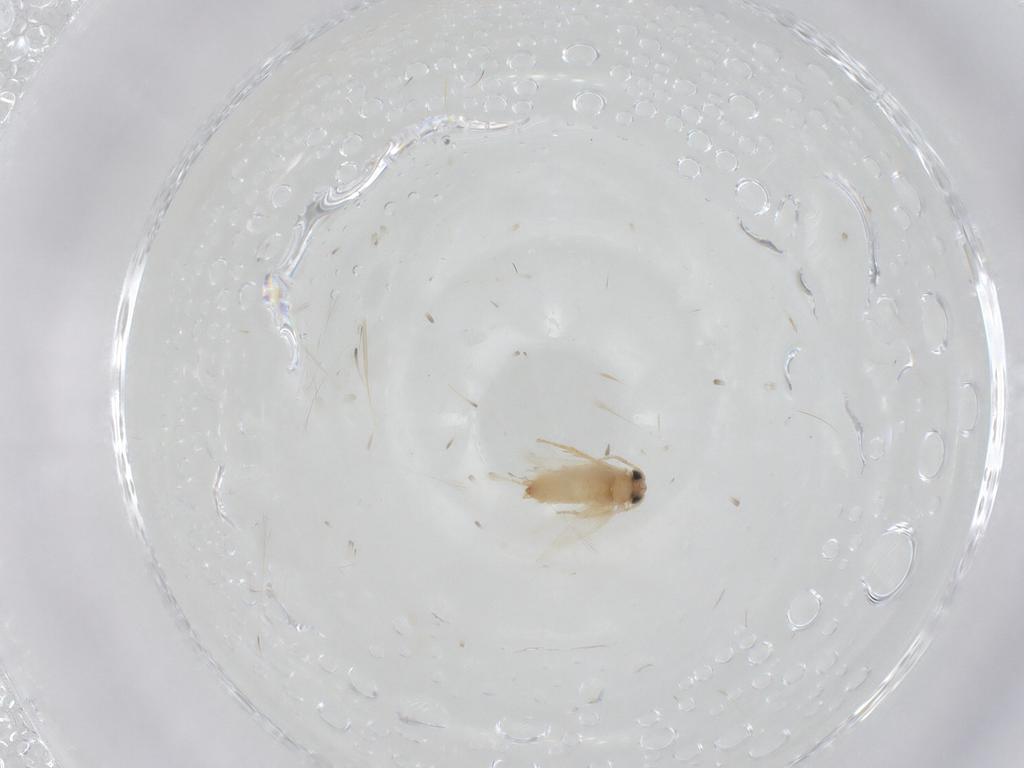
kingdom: Animalia
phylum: Arthropoda
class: Insecta
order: Lepidoptera
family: Crambidae
